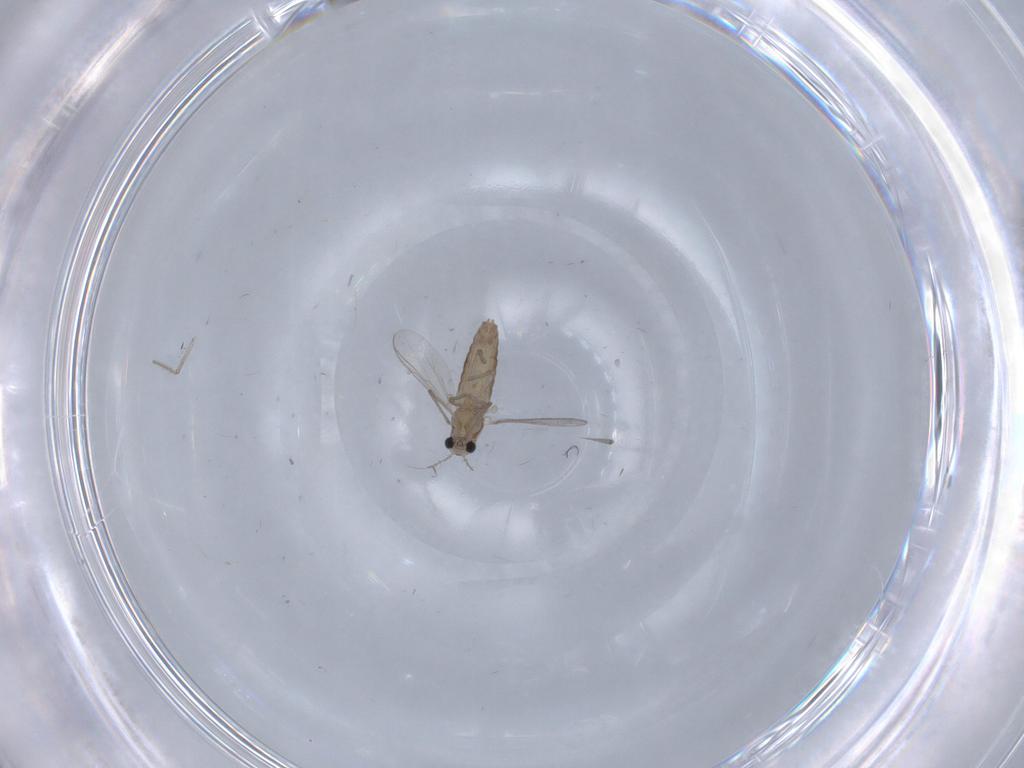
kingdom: Animalia
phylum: Arthropoda
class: Insecta
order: Diptera
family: Chironomidae
